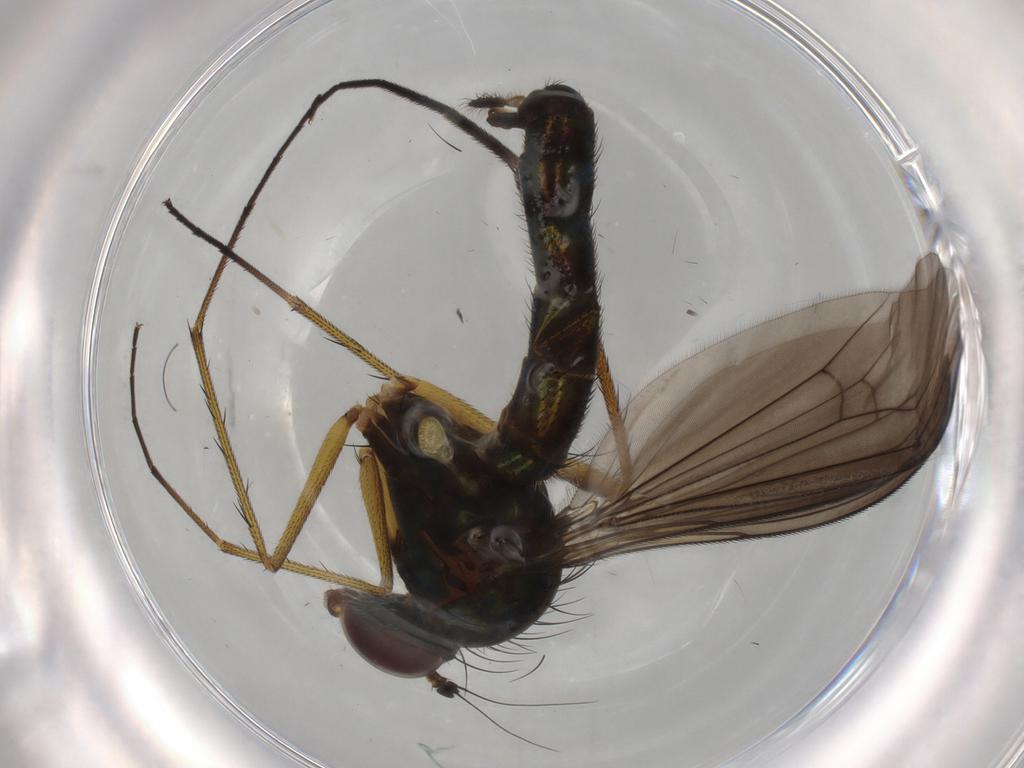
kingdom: Animalia
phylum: Arthropoda
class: Insecta
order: Diptera
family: Dolichopodidae
